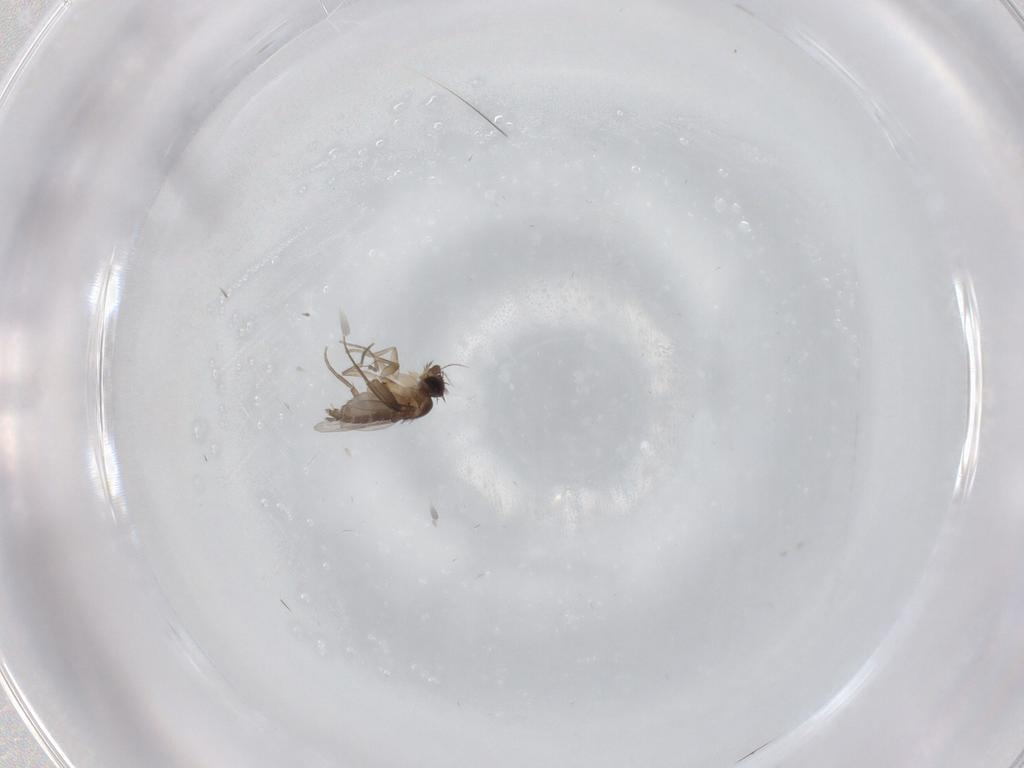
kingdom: Animalia
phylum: Arthropoda
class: Insecta
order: Diptera
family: Phoridae
